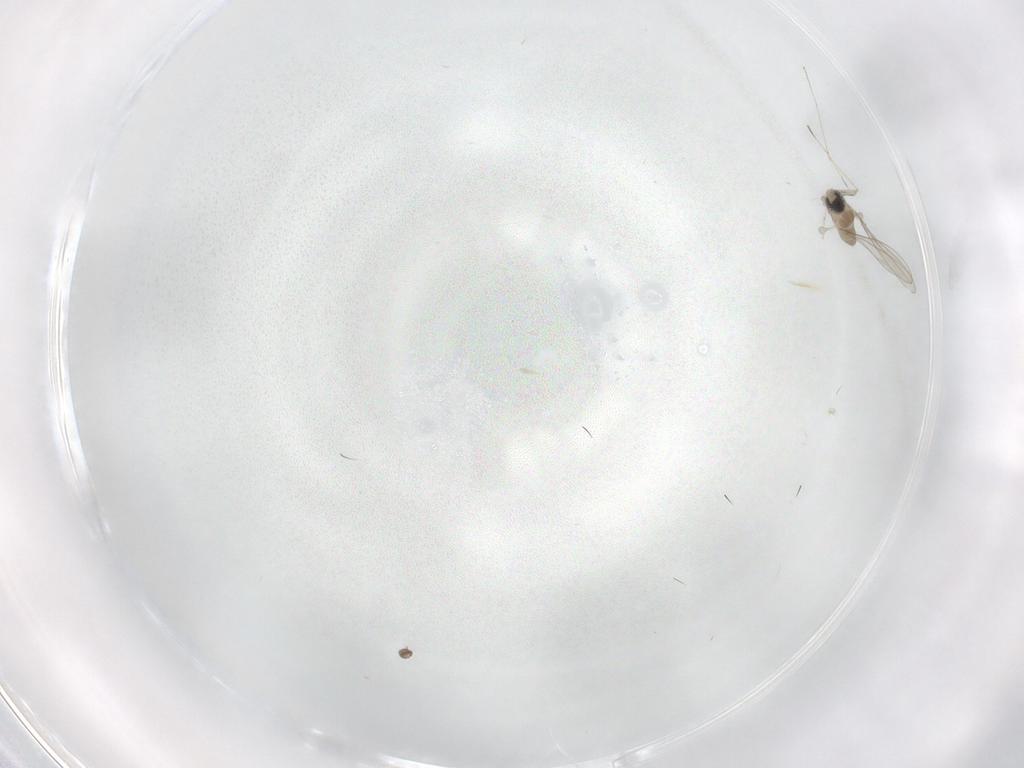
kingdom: Animalia
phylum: Arthropoda
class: Insecta
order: Diptera
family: Cecidomyiidae
